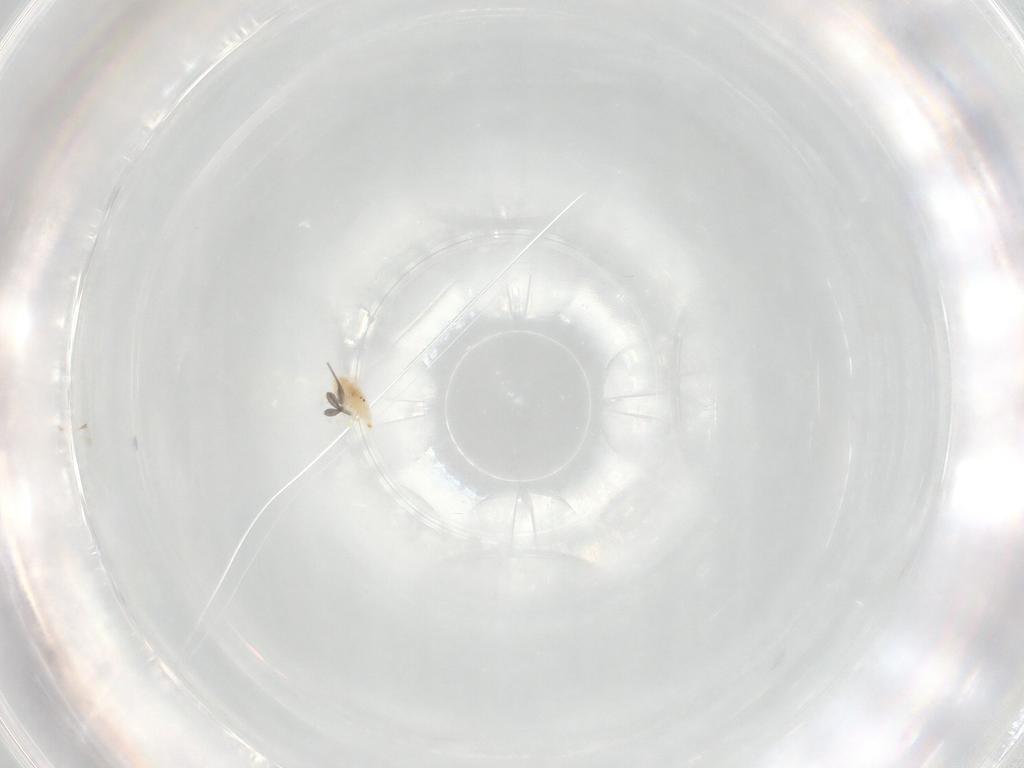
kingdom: Animalia
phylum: Arthropoda
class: Arachnida
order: Trombidiformes
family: Bdellidae
